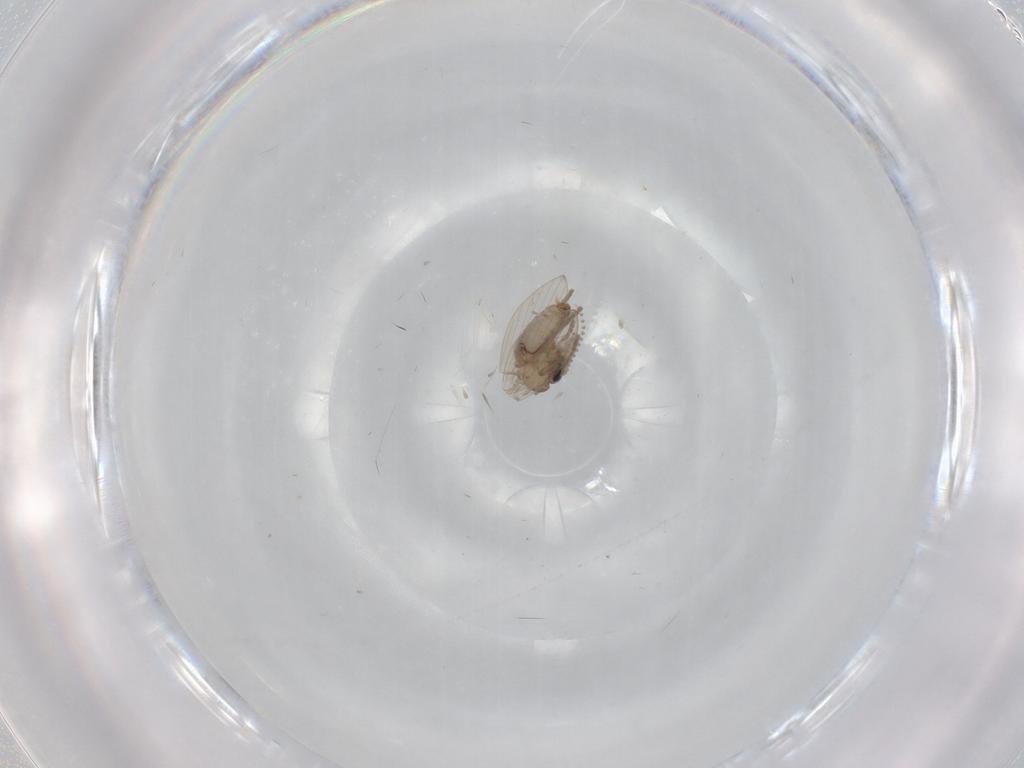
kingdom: Animalia
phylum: Arthropoda
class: Insecta
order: Diptera
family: Psychodidae
